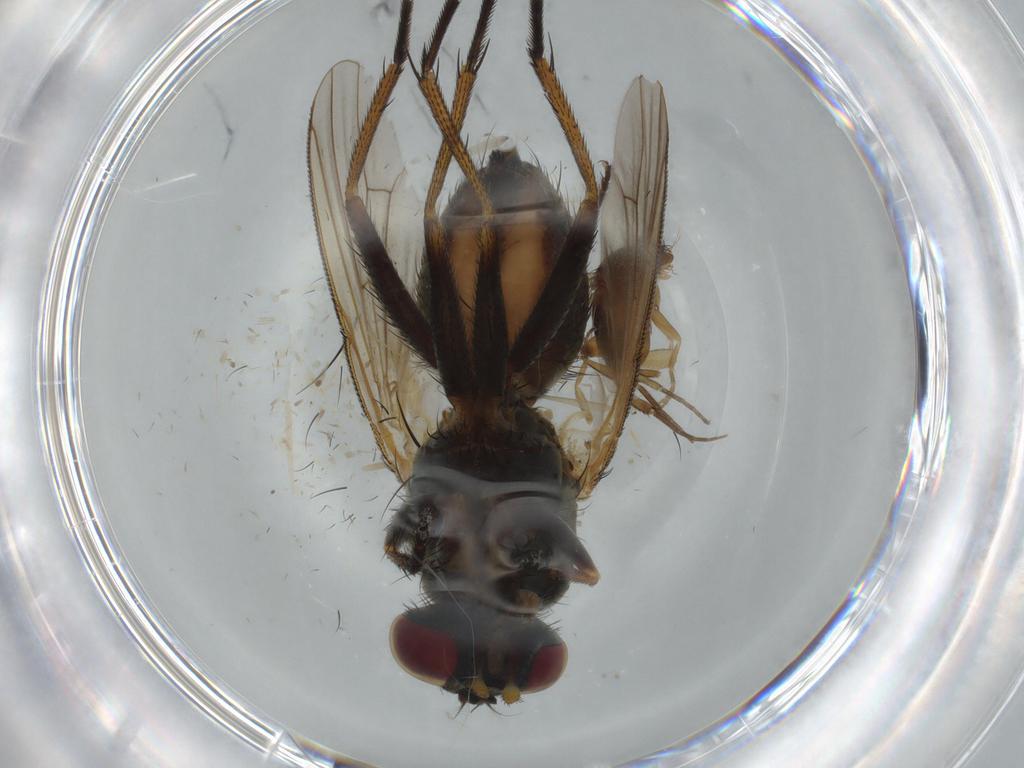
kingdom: Animalia
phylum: Arthropoda
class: Insecta
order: Diptera
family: Muscidae
